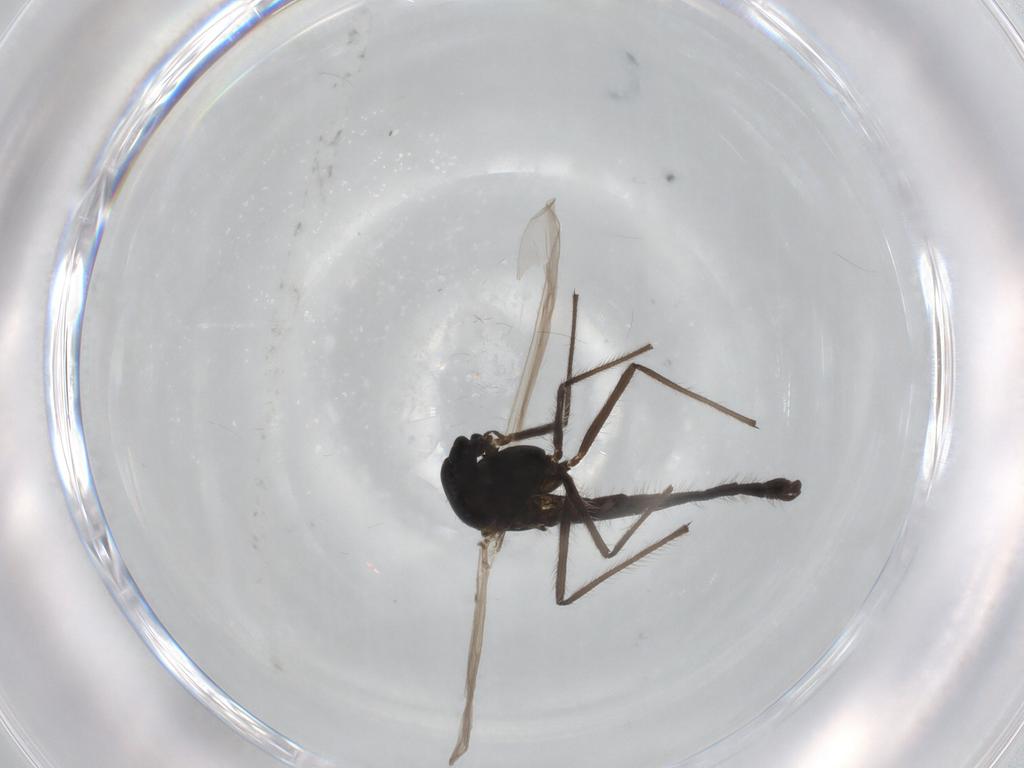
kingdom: Animalia
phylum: Arthropoda
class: Insecta
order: Diptera
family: Chironomidae
